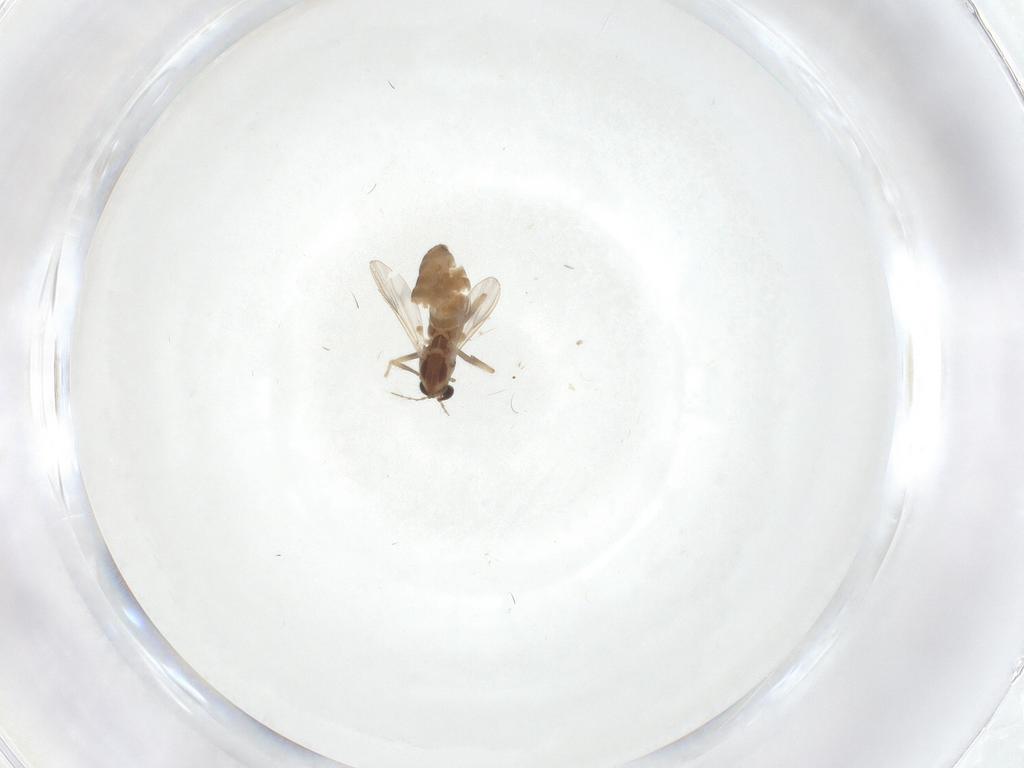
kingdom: Animalia
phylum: Arthropoda
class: Insecta
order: Diptera
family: Chironomidae
